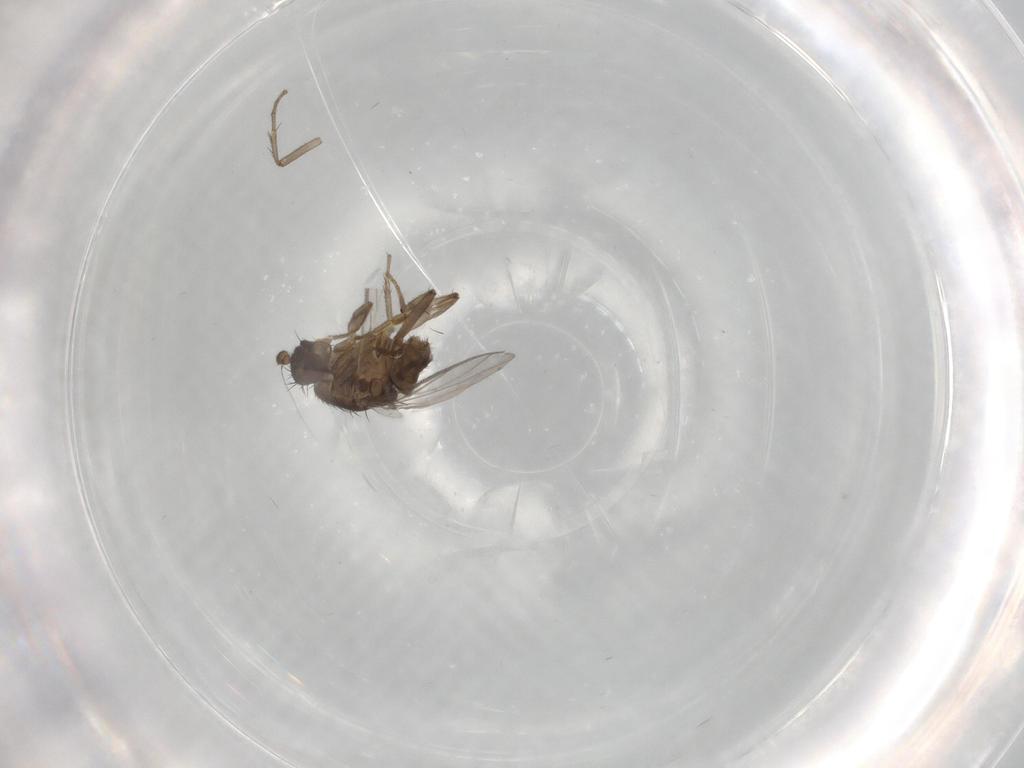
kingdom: Animalia
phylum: Arthropoda
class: Insecta
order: Diptera
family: Sphaeroceridae
